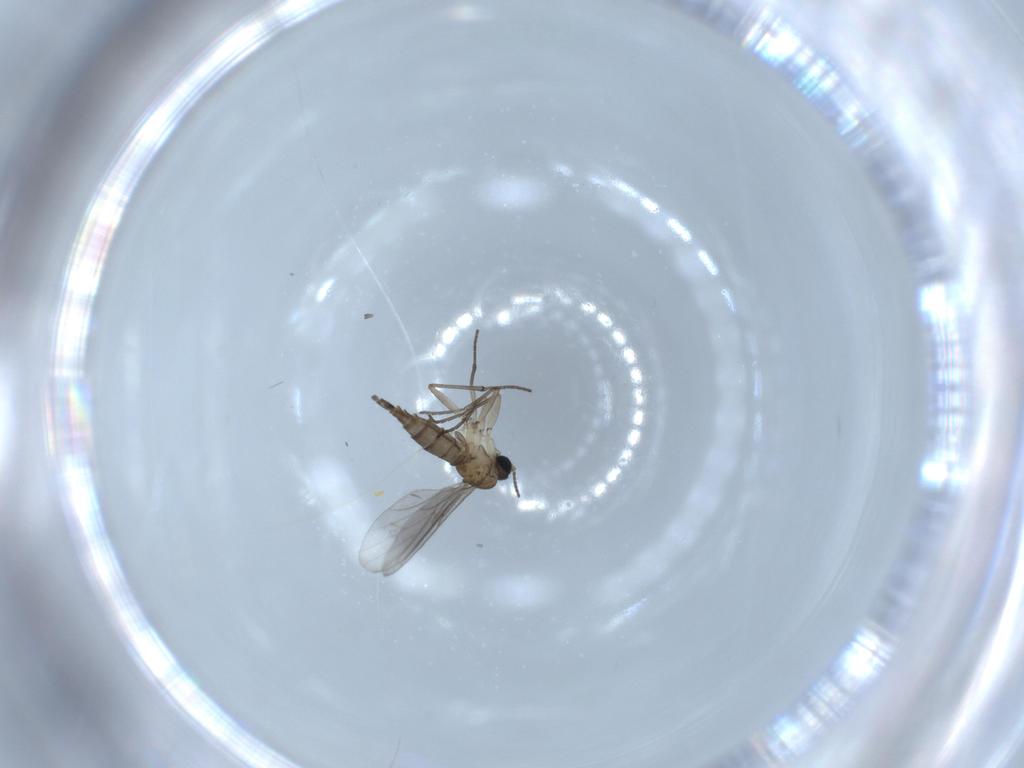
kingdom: Animalia
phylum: Arthropoda
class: Insecta
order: Diptera
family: Sciaridae
